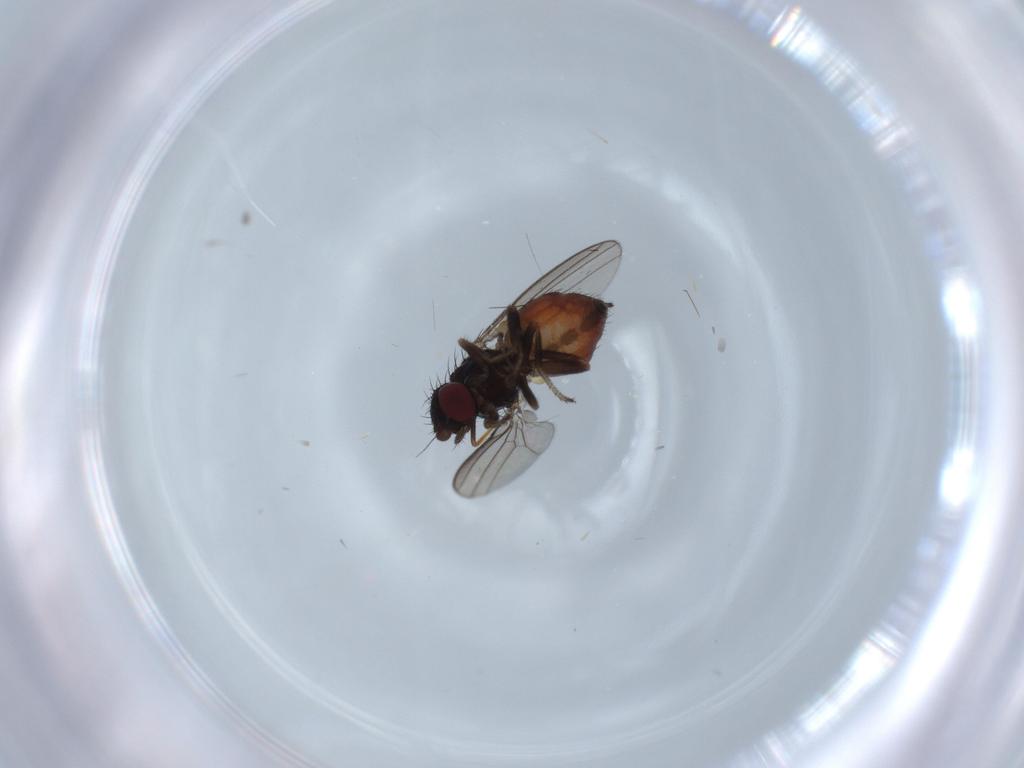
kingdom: Animalia
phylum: Arthropoda
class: Insecta
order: Diptera
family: Milichiidae
